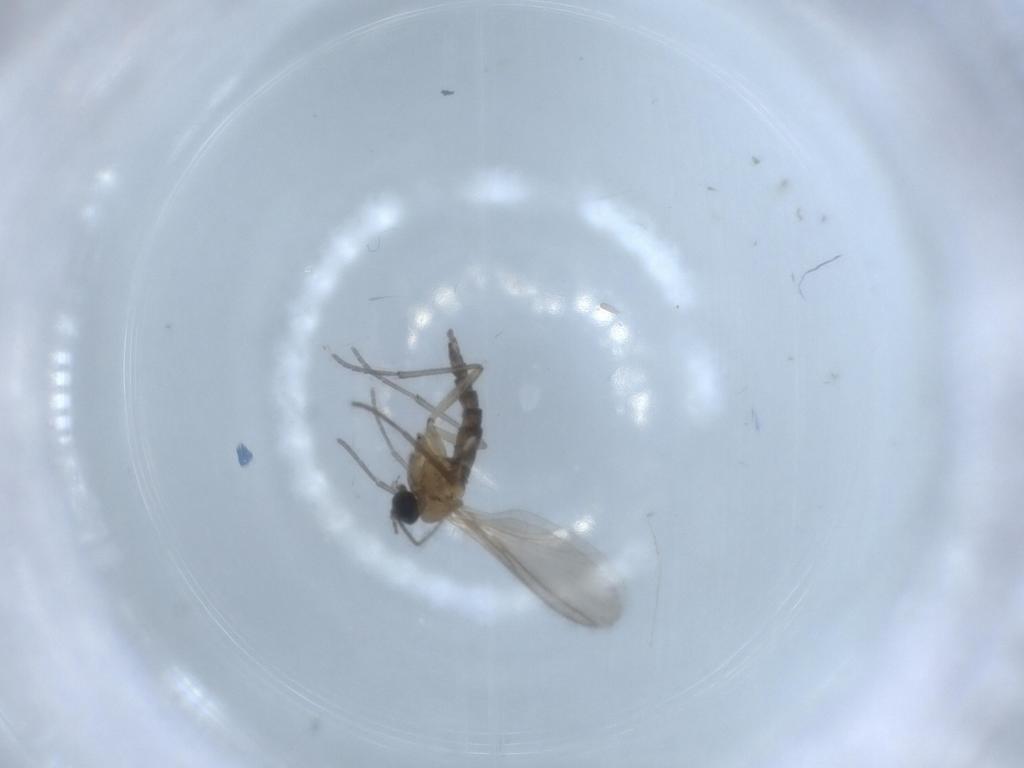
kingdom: Animalia
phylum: Arthropoda
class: Insecta
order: Diptera
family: Sciaridae
